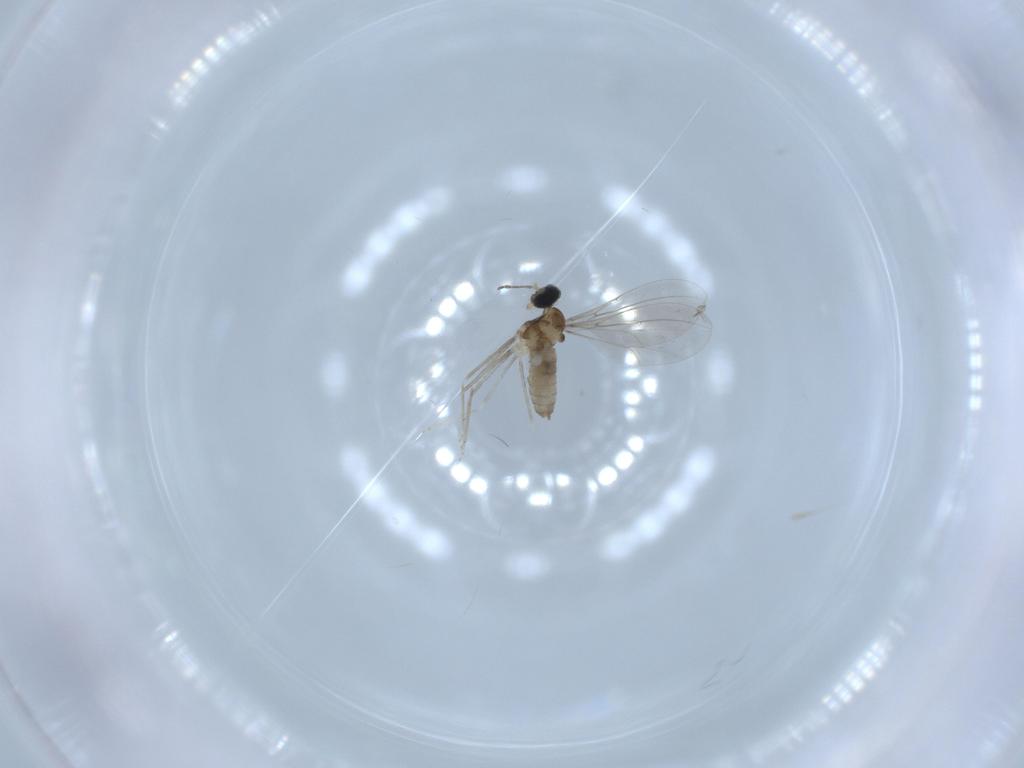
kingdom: Animalia
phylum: Arthropoda
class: Insecta
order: Diptera
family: Cecidomyiidae
